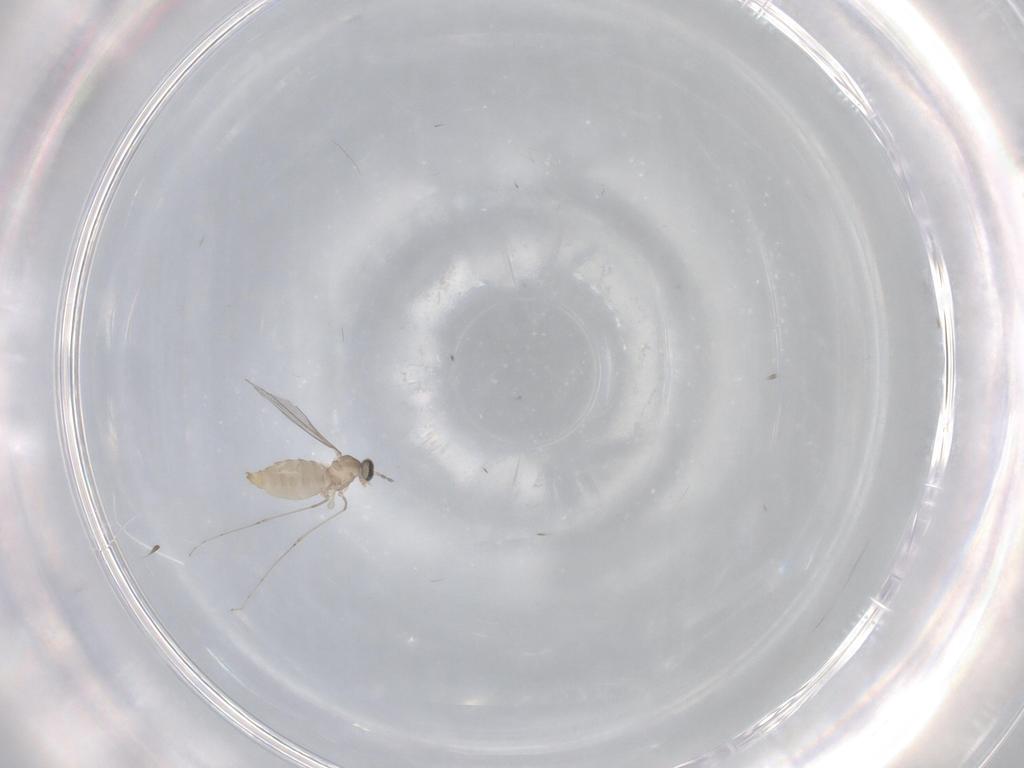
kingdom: Animalia
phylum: Arthropoda
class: Insecta
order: Diptera
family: Cecidomyiidae
